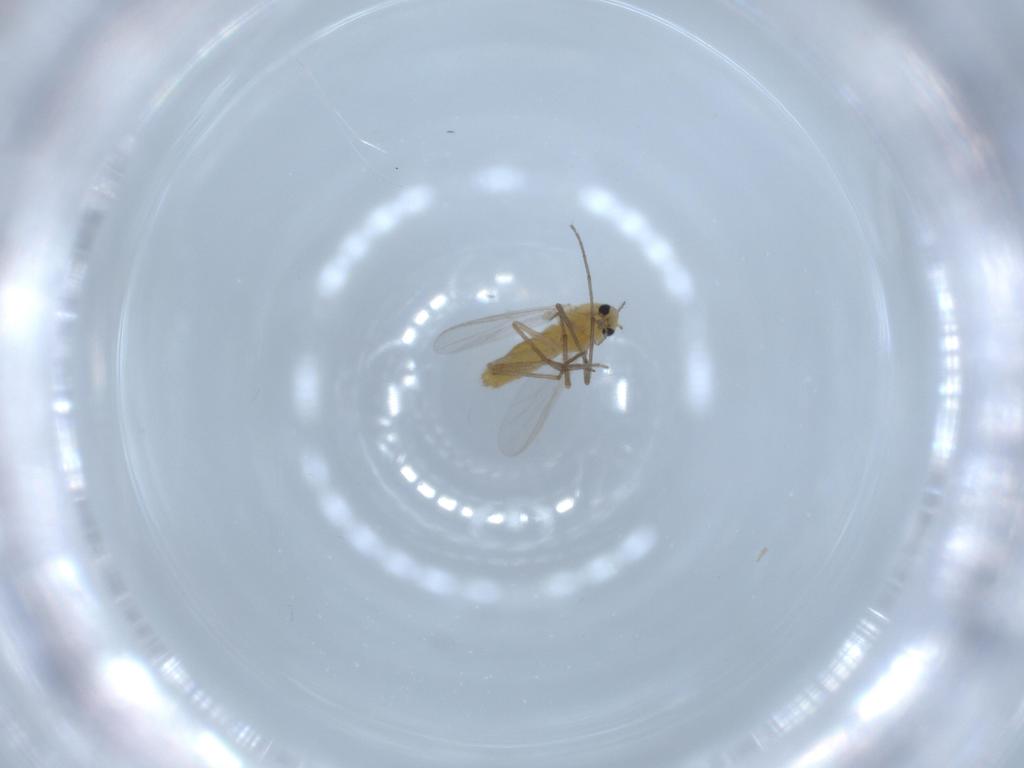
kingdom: Animalia
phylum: Arthropoda
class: Insecta
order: Diptera
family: Chironomidae
